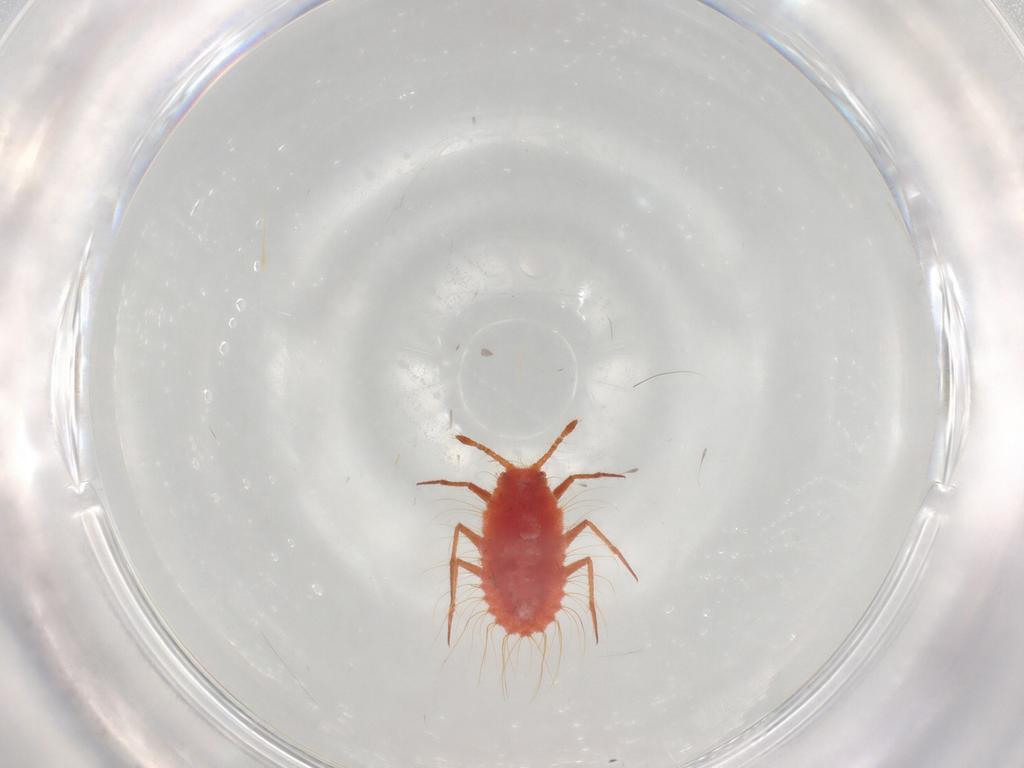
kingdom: Animalia
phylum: Arthropoda
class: Insecta
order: Hemiptera
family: Monophlebidae
